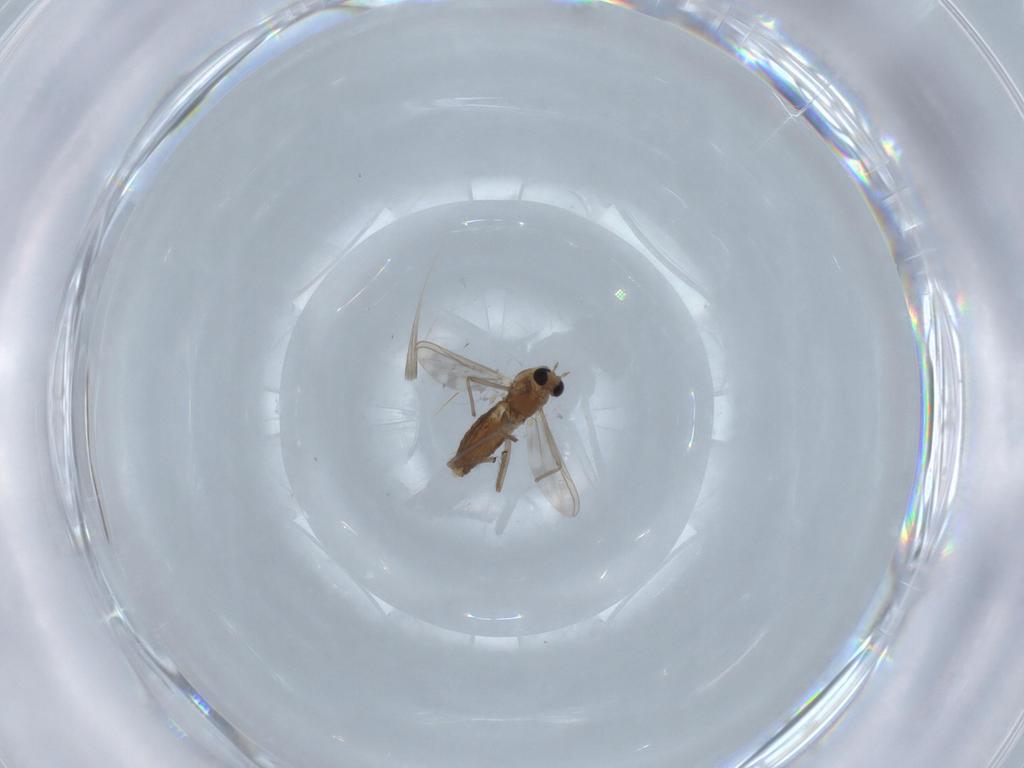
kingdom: Animalia
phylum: Arthropoda
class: Insecta
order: Diptera
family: Chironomidae
